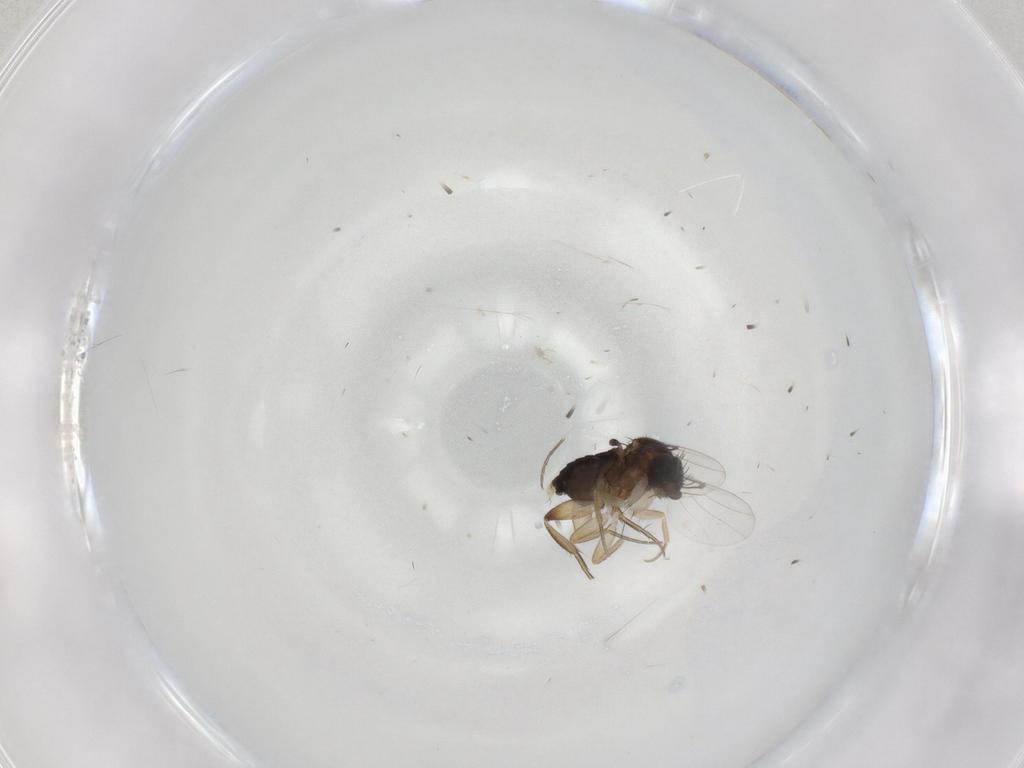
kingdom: Animalia
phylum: Arthropoda
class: Insecta
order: Diptera
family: Phoridae
